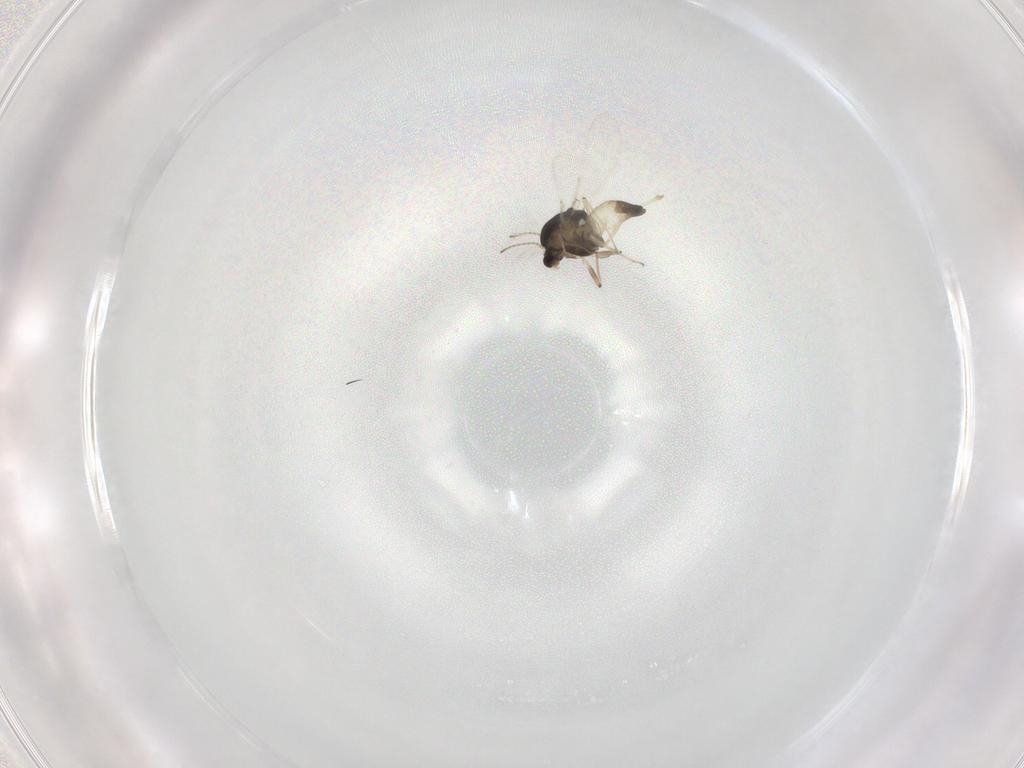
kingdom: Animalia
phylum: Arthropoda
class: Insecta
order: Diptera
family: Chironomidae
